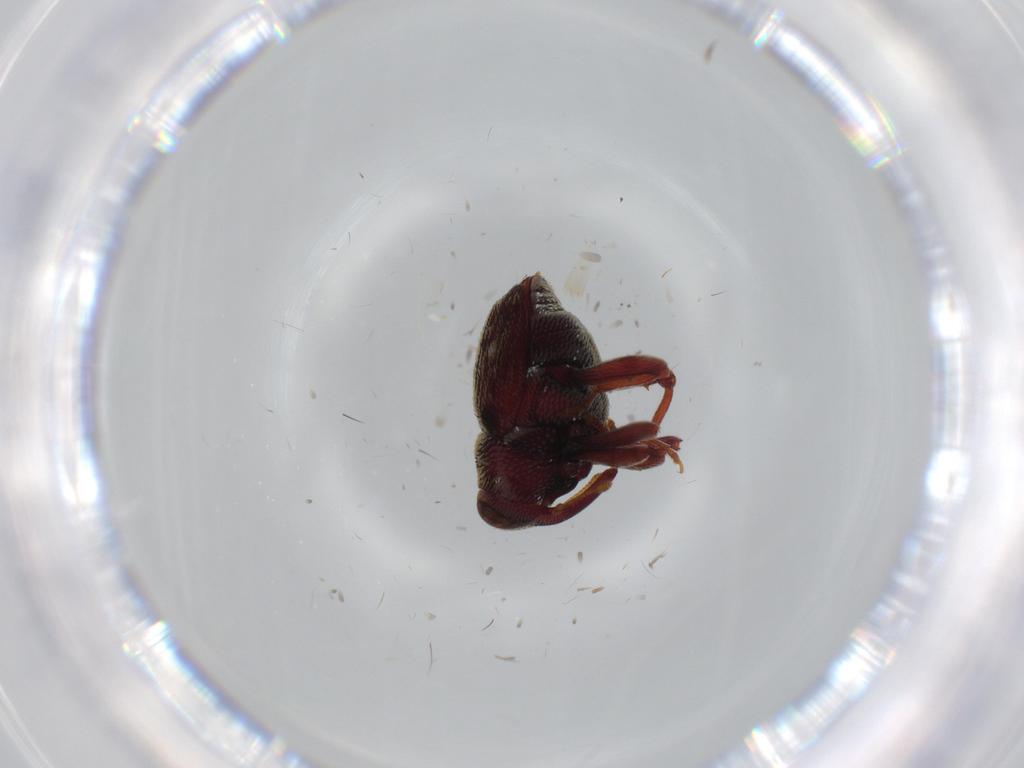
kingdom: Animalia
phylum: Arthropoda
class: Insecta
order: Coleoptera
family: Curculionidae
